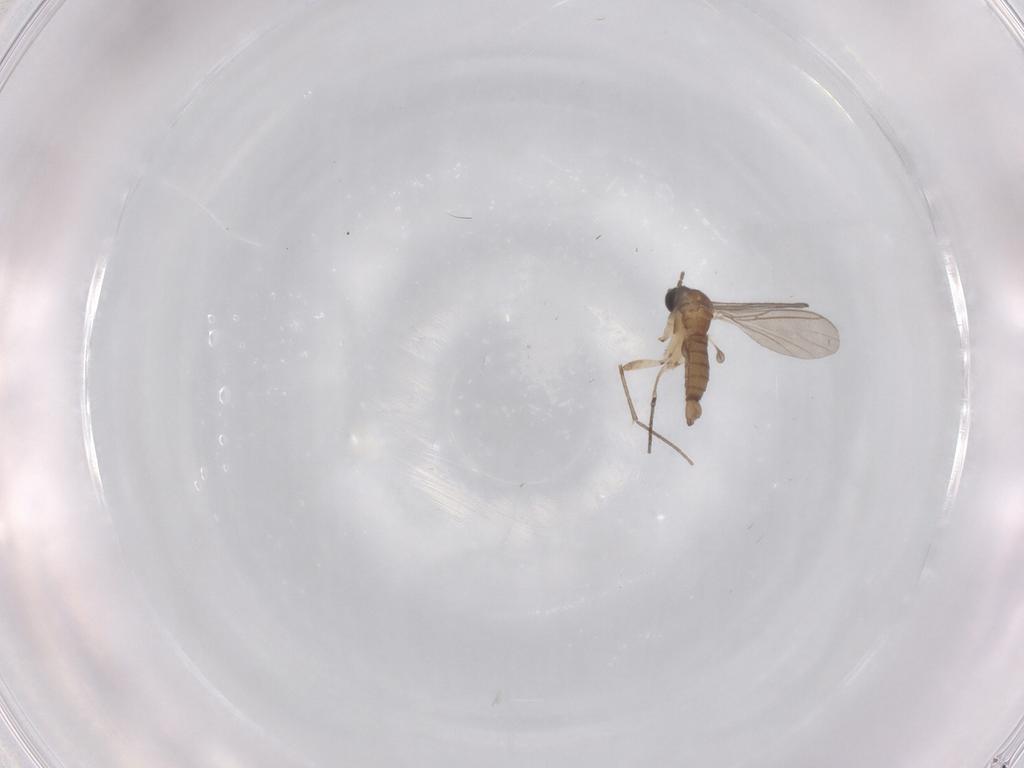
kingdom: Animalia
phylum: Arthropoda
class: Insecta
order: Diptera
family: Sciaridae
